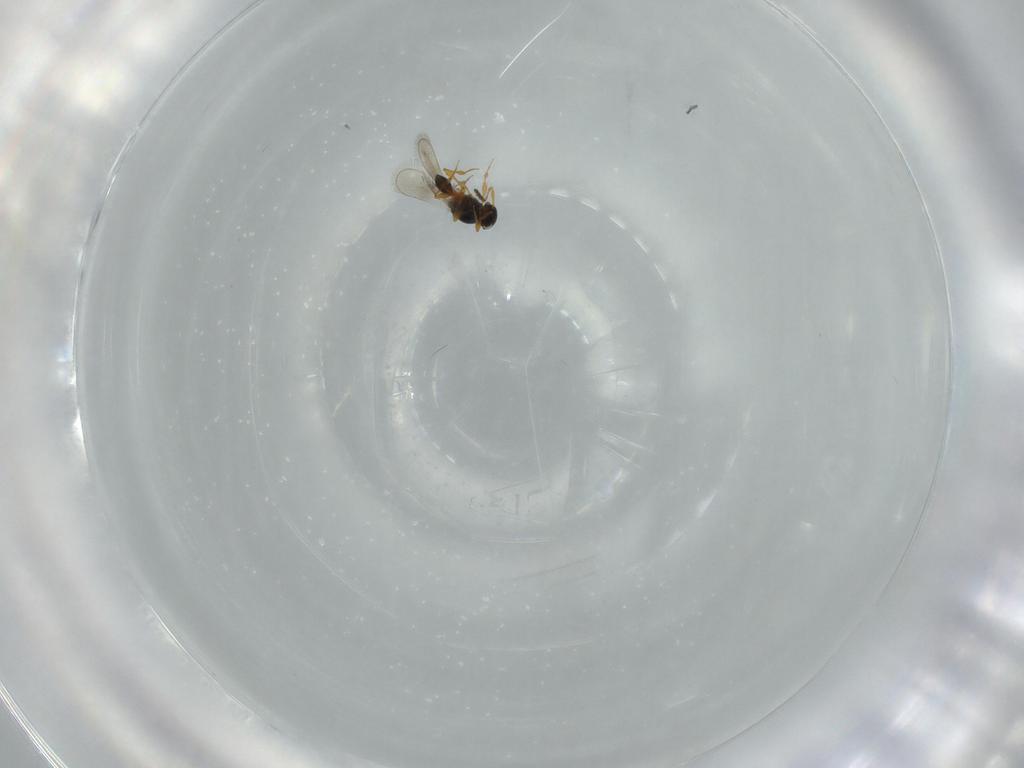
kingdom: Animalia
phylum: Arthropoda
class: Insecta
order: Hymenoptera
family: Platygastridae
